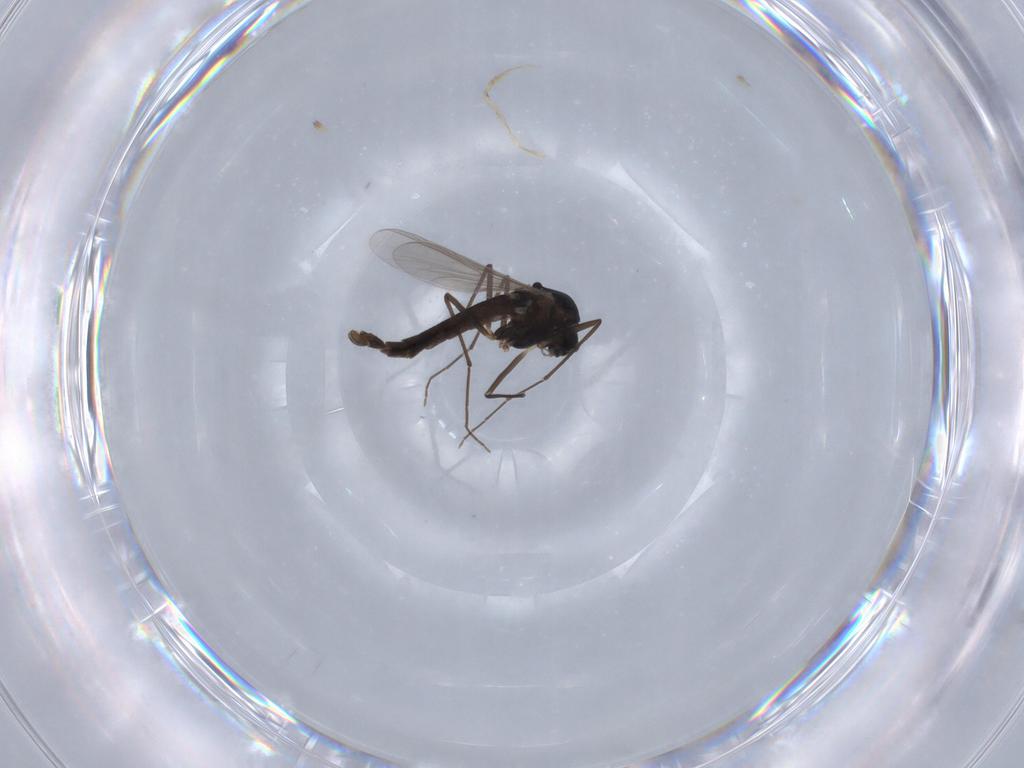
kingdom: Animalia
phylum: Arthropoda
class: Insecta
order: Diptera
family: Chironomidae
